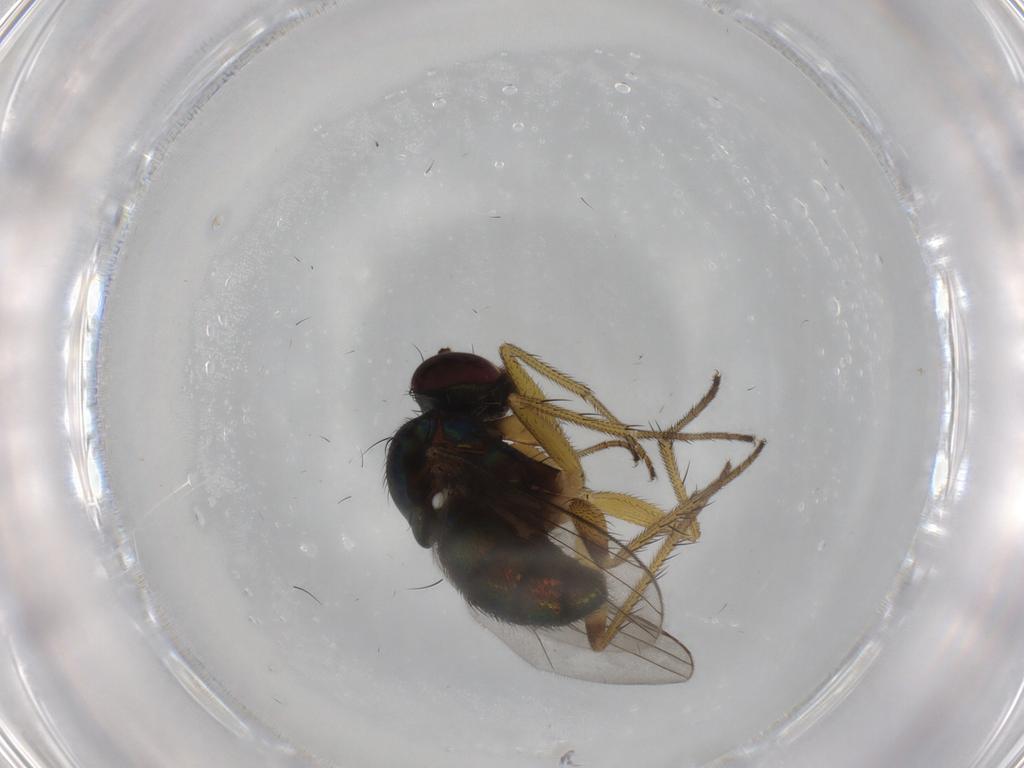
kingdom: Animalia
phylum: Arthropoda
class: Insecta
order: Diptera
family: Dolichopodidae
